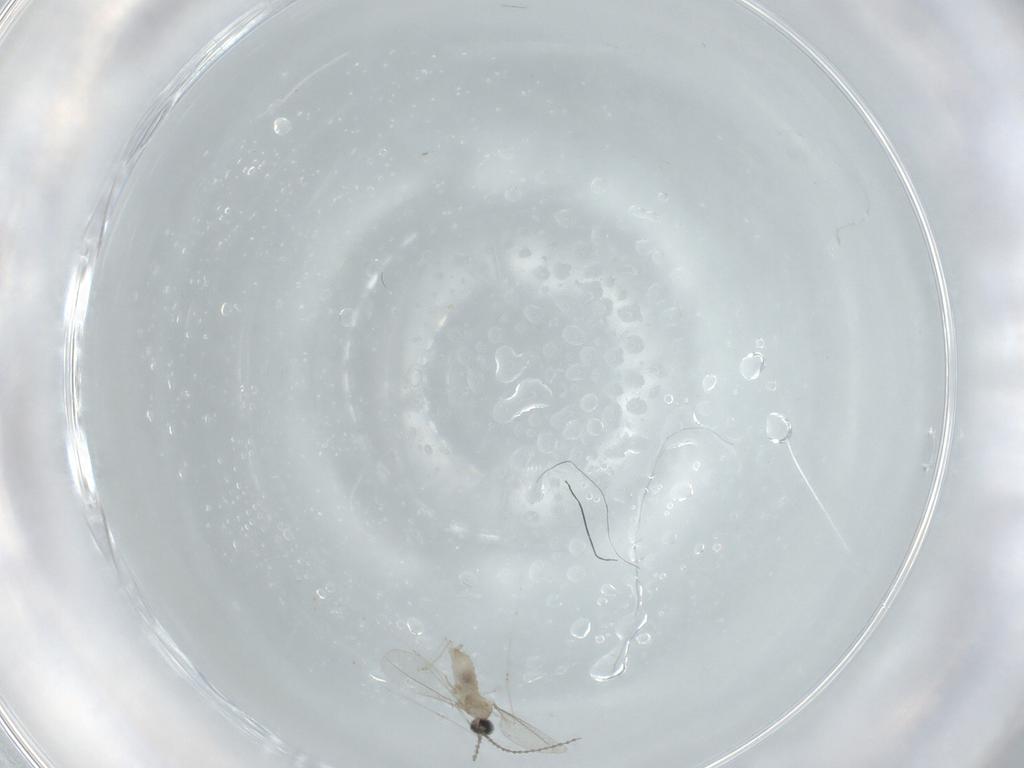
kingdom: Animalia
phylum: Arthropoda
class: Insecta
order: Diptera
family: Cecidomyiidae
